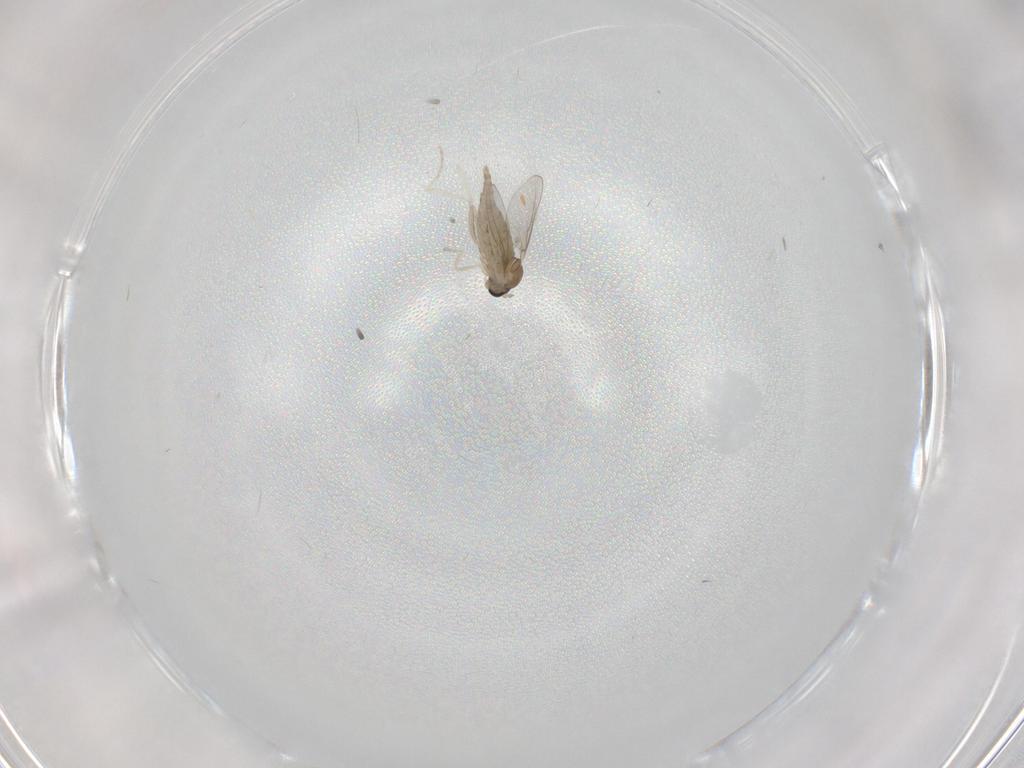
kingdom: Animalia
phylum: Arthropoda
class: Insecta
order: Diptera
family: Cecidomyiidae
